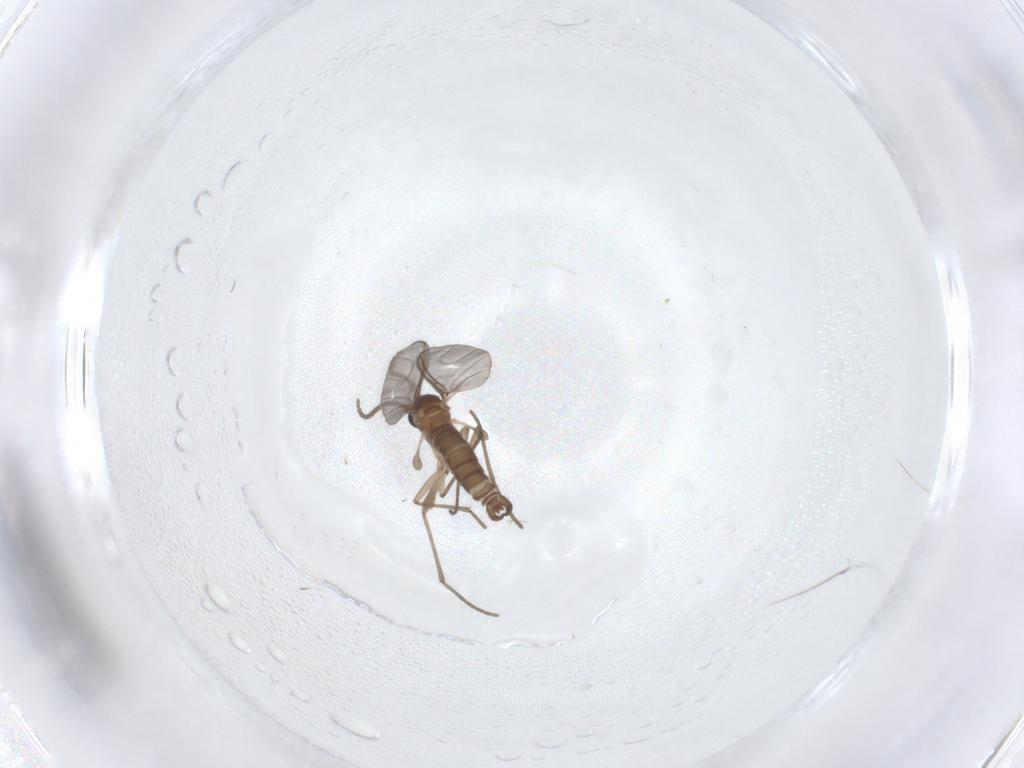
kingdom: Animalia
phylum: Arthropoda
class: Insecta
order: Diptera
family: Sciaridae
